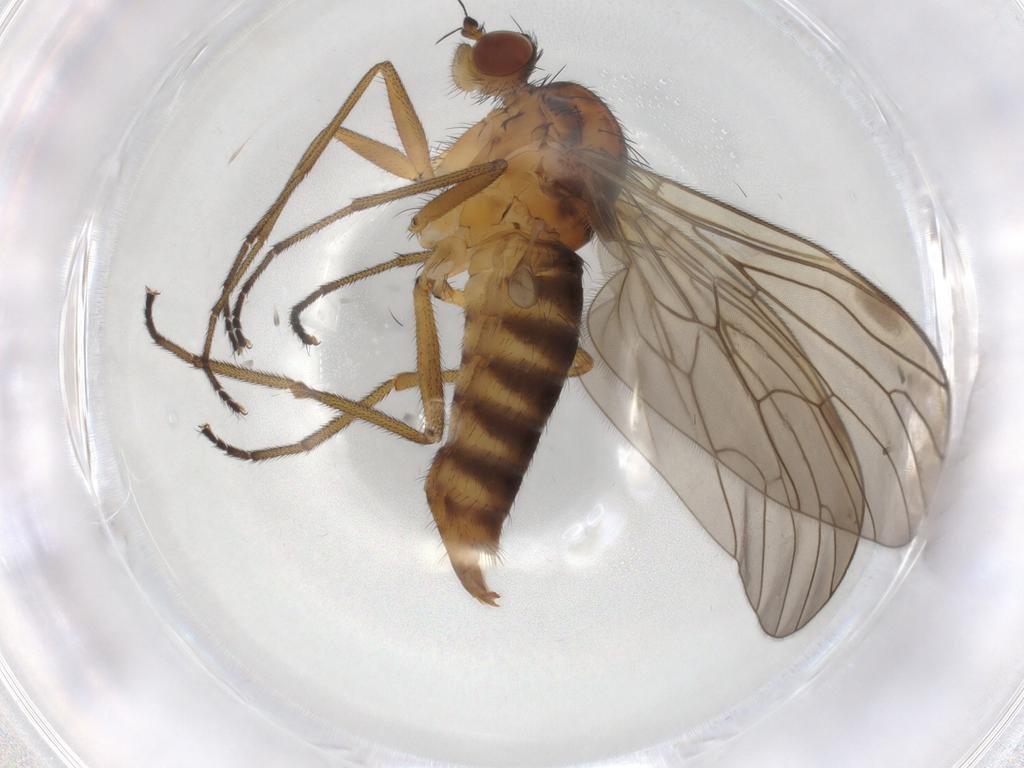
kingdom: Animalia
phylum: Arthropoda
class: Insecta
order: Diptera
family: Brachystomatidae
